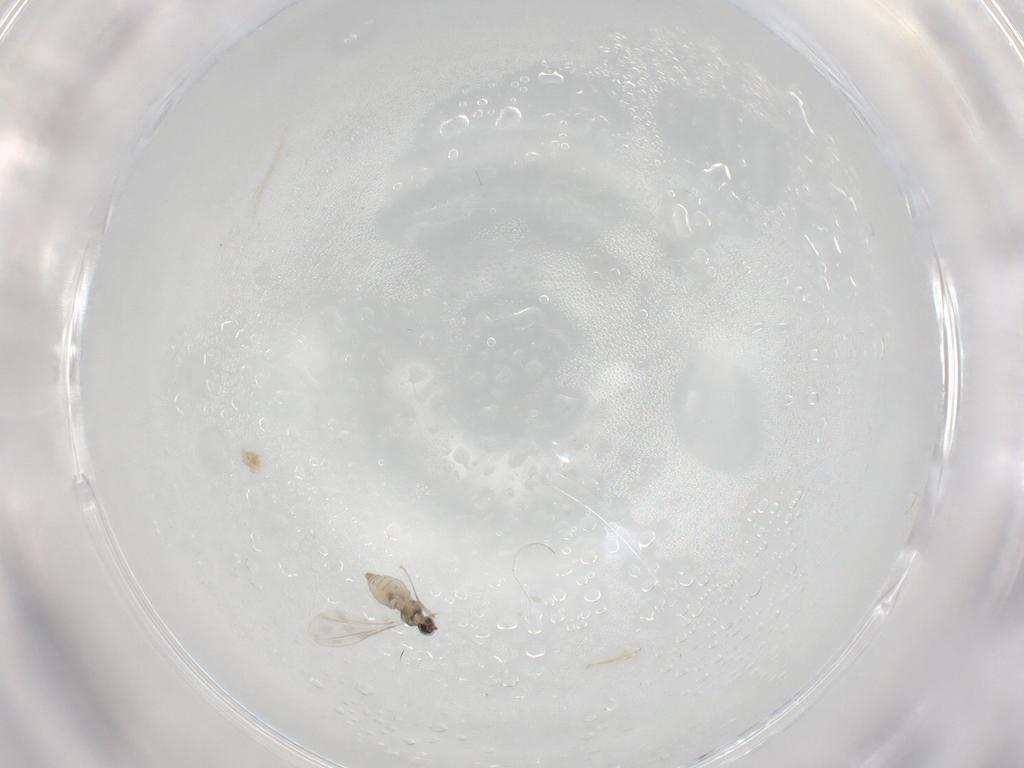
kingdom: Animalia
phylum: Arthropoda
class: Insecta
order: Diptera
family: Cecidomyiidae
